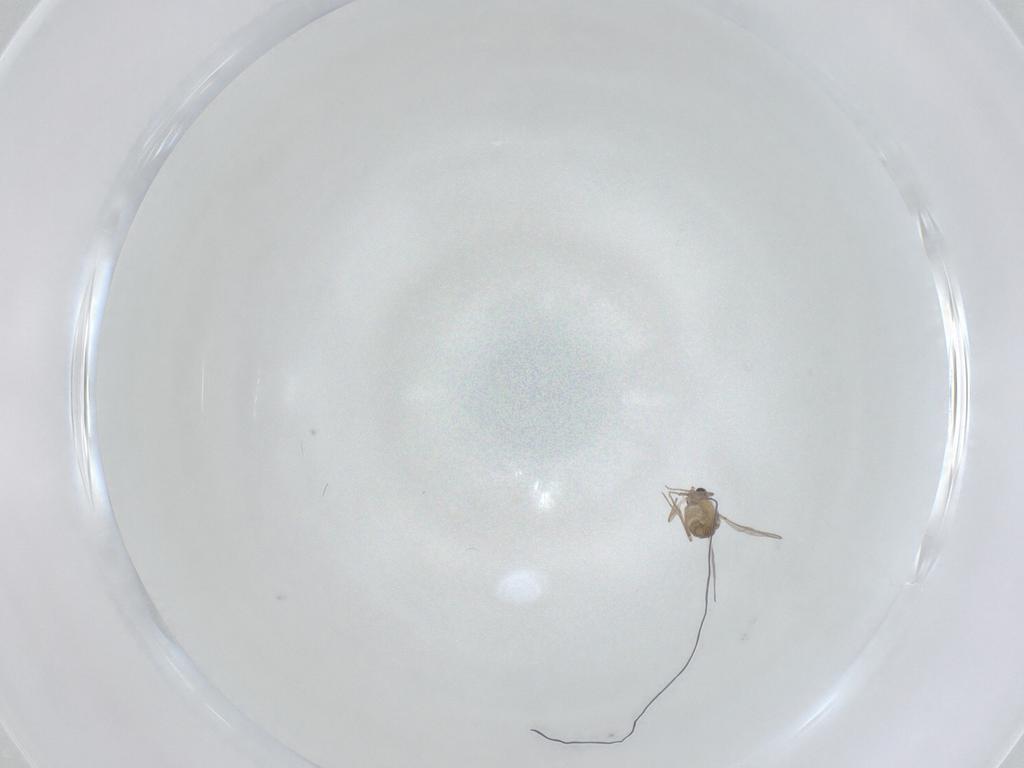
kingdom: Animalia
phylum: Arthropoda
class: Insecta
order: Diptera
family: Chironomidae
